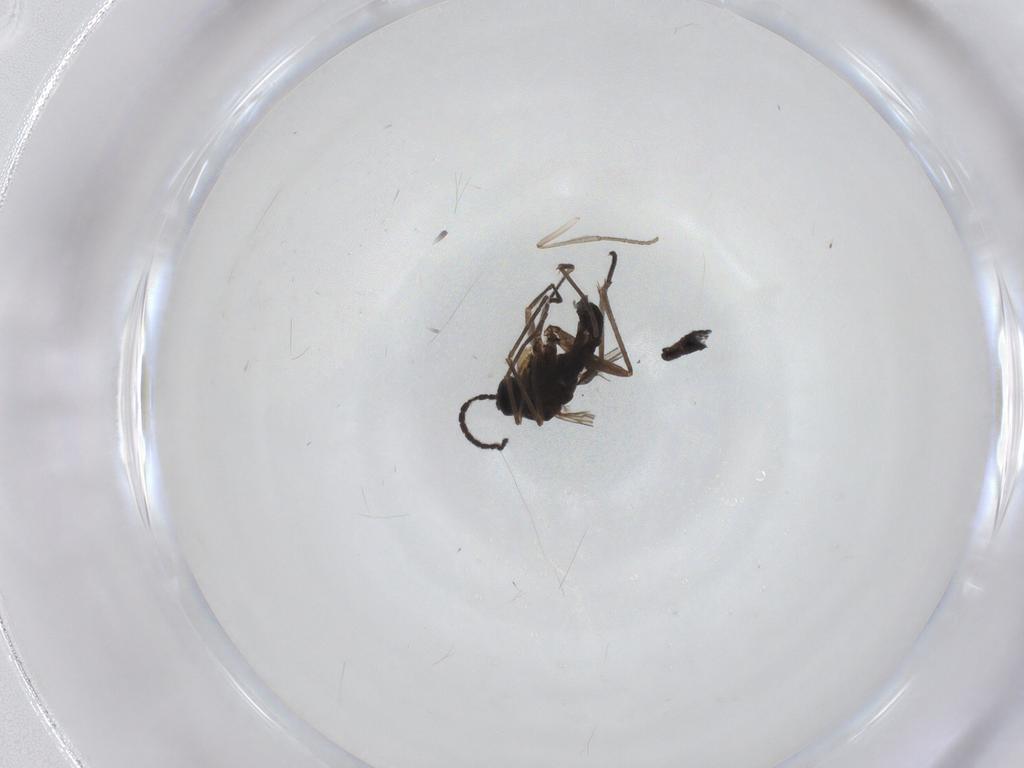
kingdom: Animalia
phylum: Arthropoda
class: Insecta
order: Diptera
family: Sciaridae
